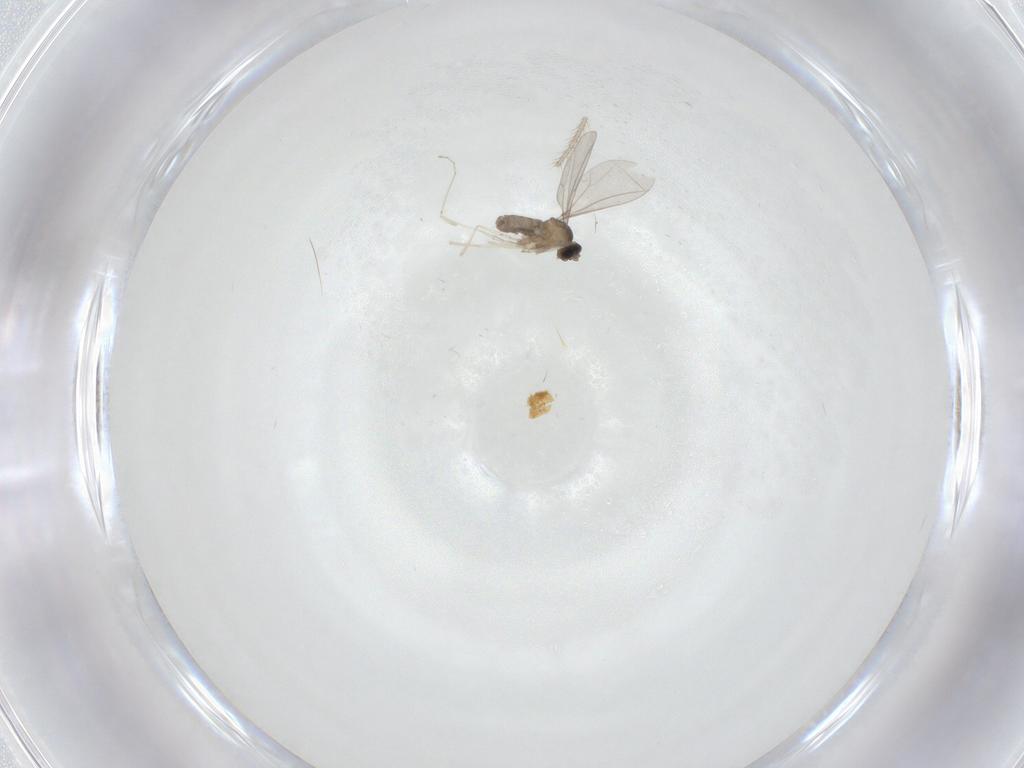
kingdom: Animalia
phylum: Arthropoda
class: Insecta
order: Diptera
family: Cecidomyiidae
